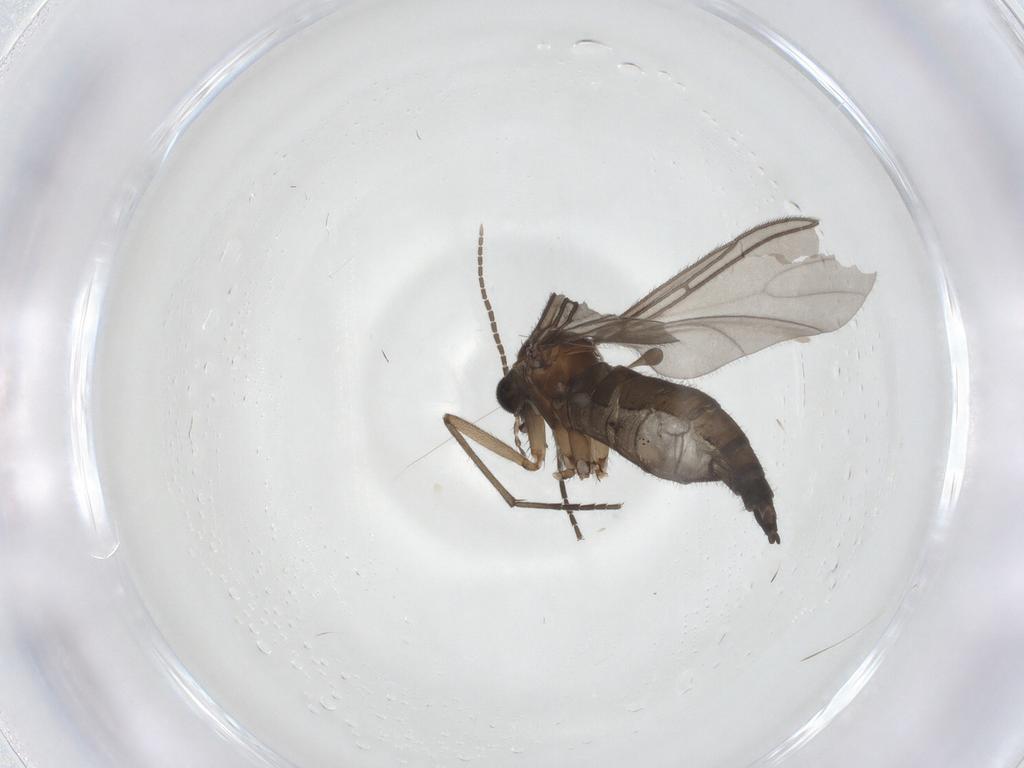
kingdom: Animalia
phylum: Arthropoda
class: Insecta
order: Diptera
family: Sciaridae
